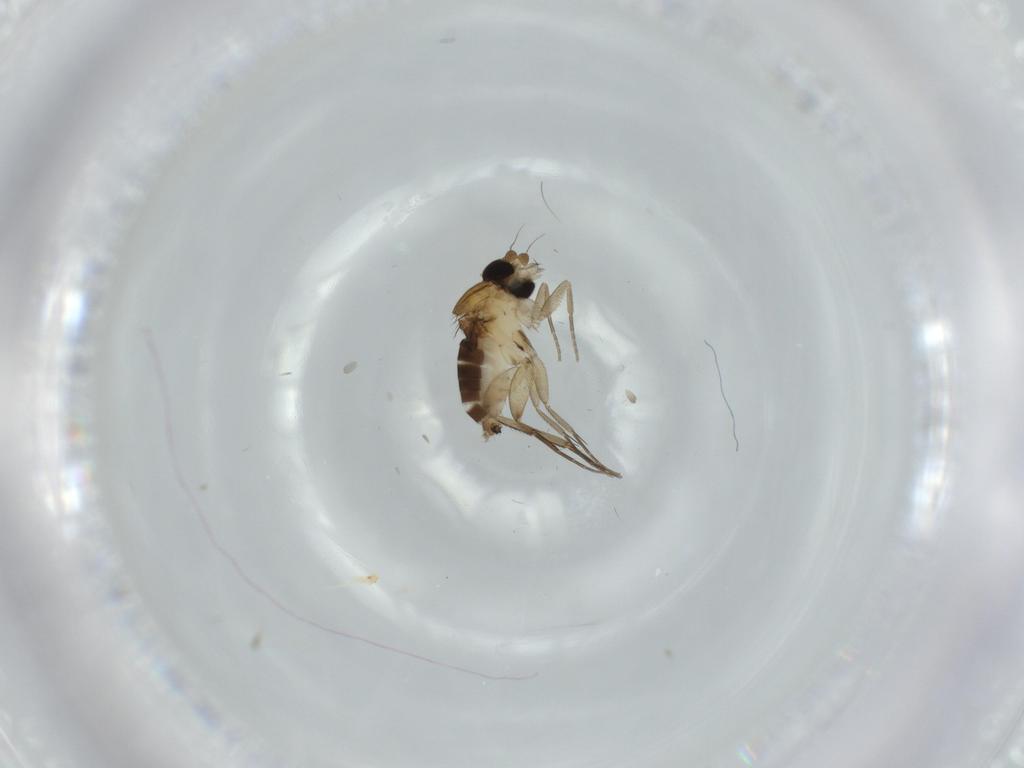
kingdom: Animalia
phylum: Arthropoda
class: Insecta
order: Diptera
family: Phoridae
